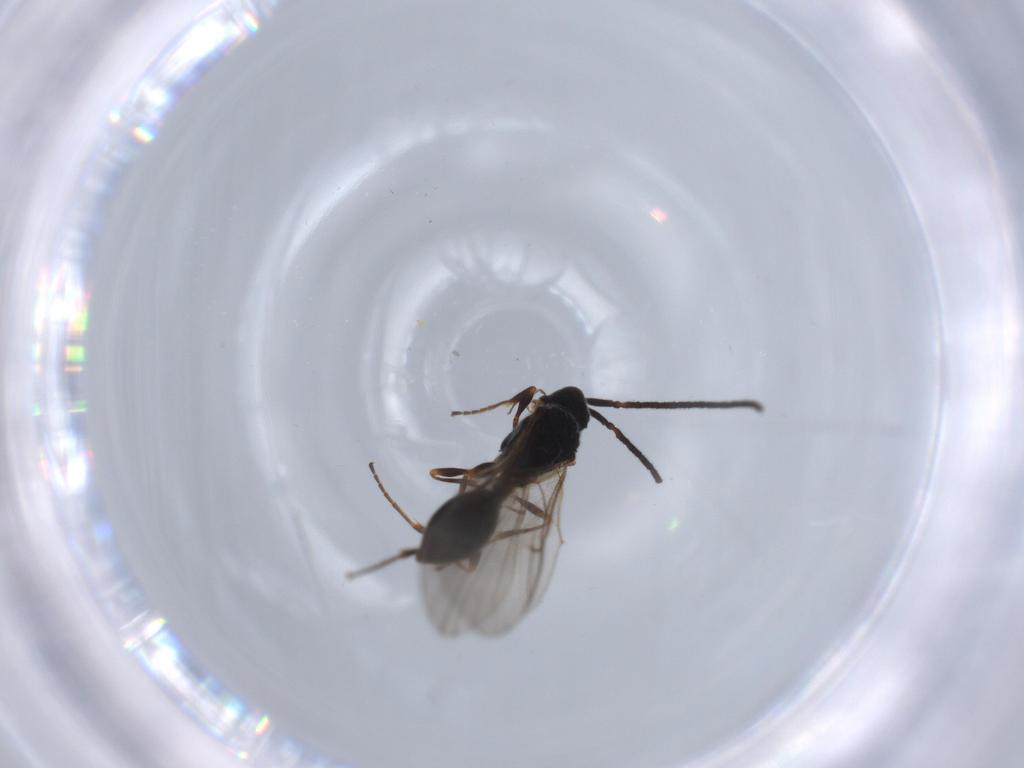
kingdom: Animalia
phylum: Arthropoda
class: Insecta
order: Hymenoptera
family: Diapriidae
